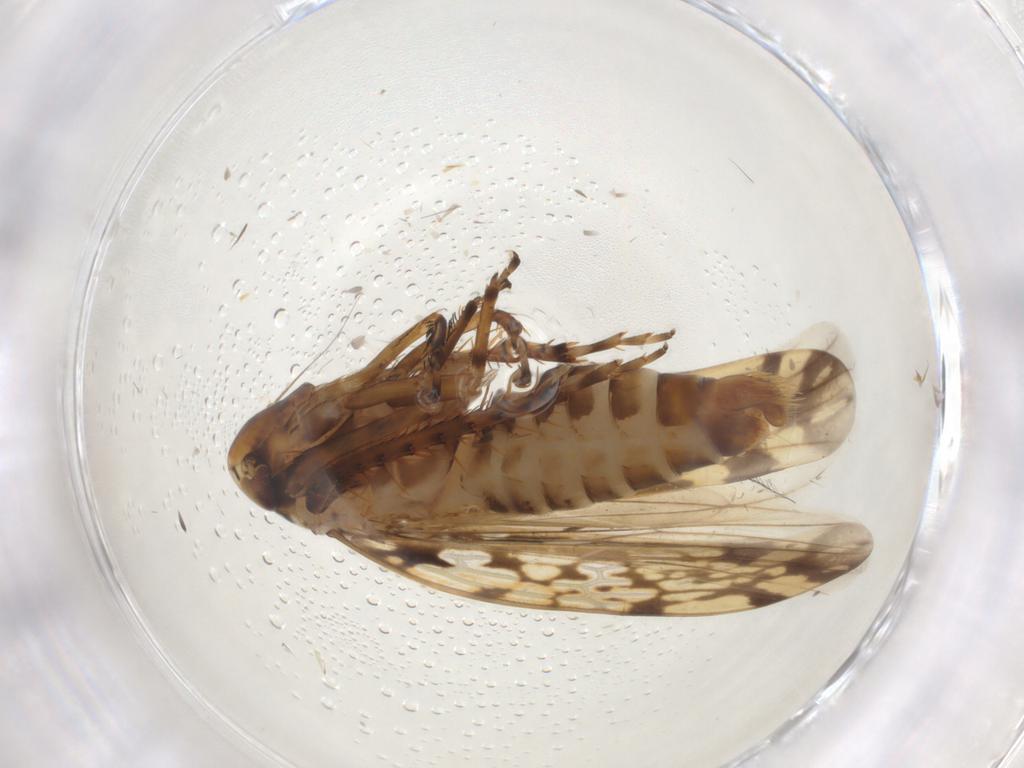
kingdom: Animalia
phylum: Arthropoda
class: Insecta
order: Hemiptera
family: Cicadellidae
